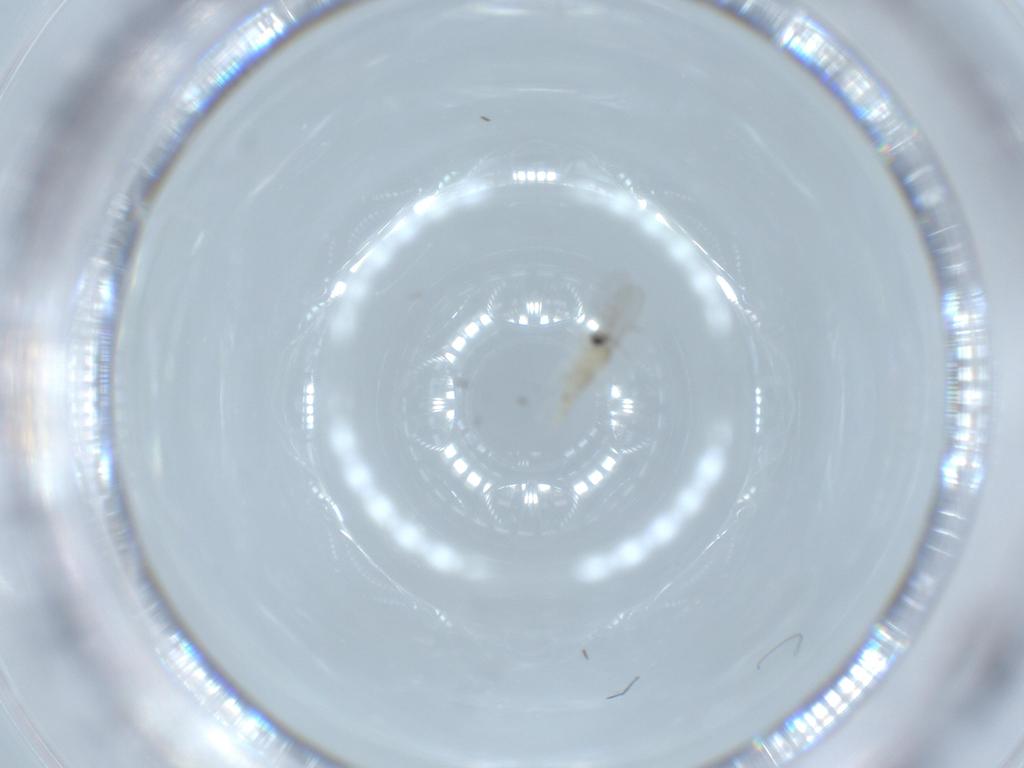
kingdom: Animalia
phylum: Arthropoda
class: Insecta
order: Diptera
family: Cecidomyiidae
